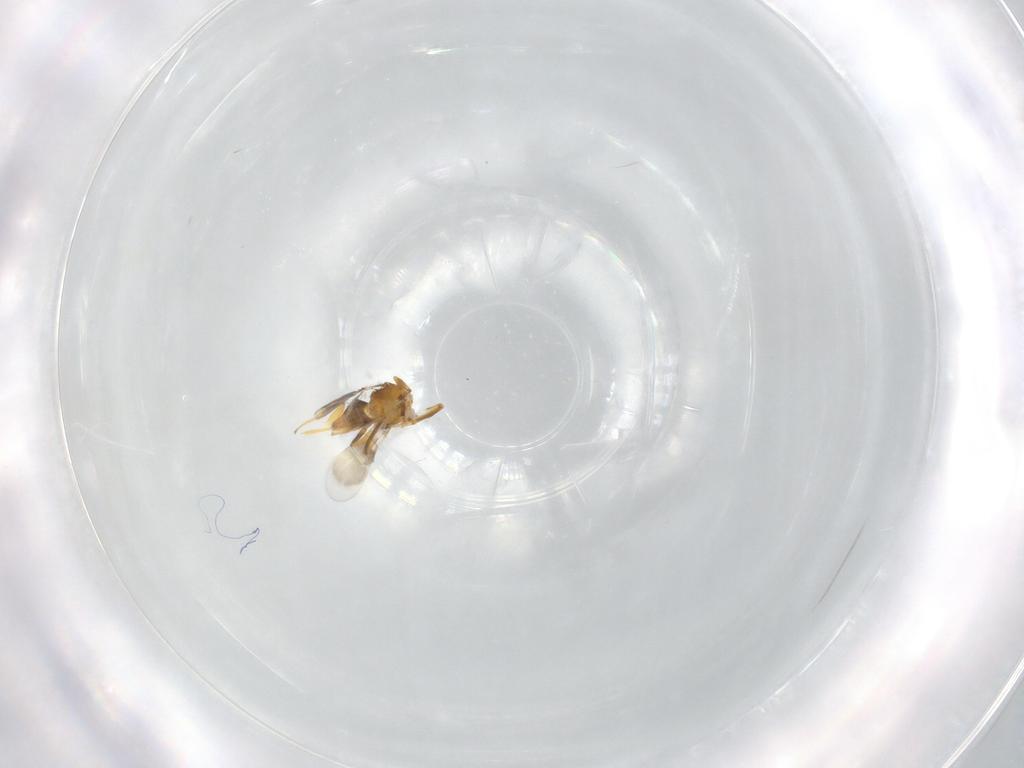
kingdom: Animalia
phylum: Arthropoda
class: Insecta
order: Hymenoptera
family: Encyrtidae
